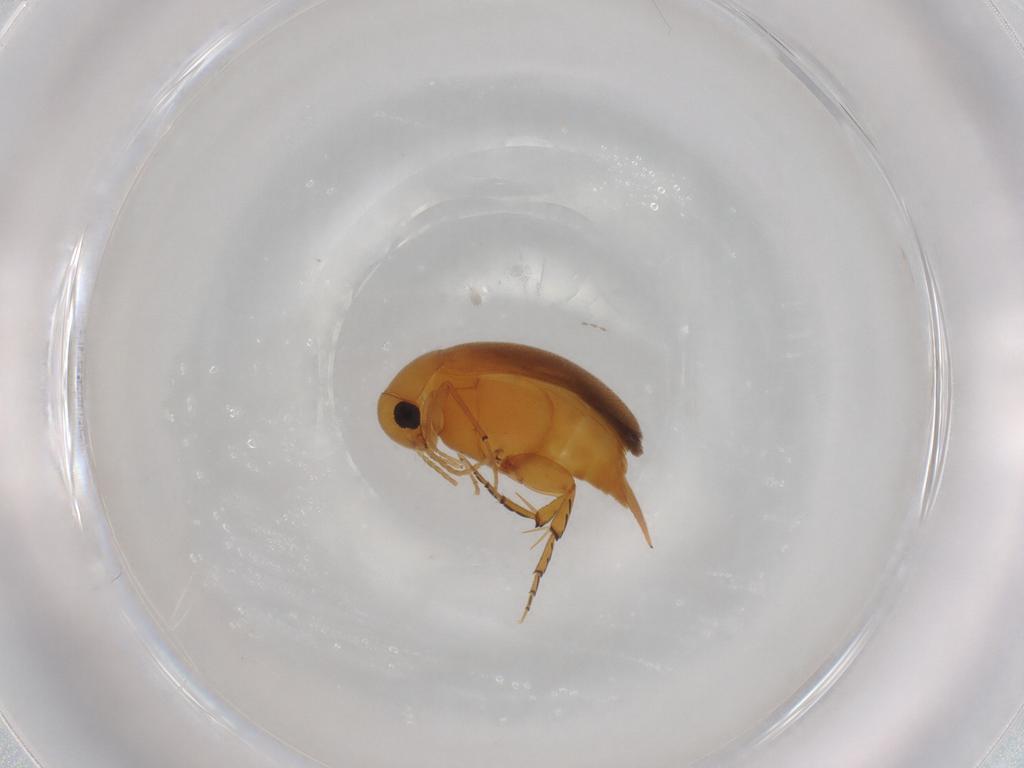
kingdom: Animalia
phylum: Arthropoda
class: Insecta
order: Coleoptera
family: Mordellidae
